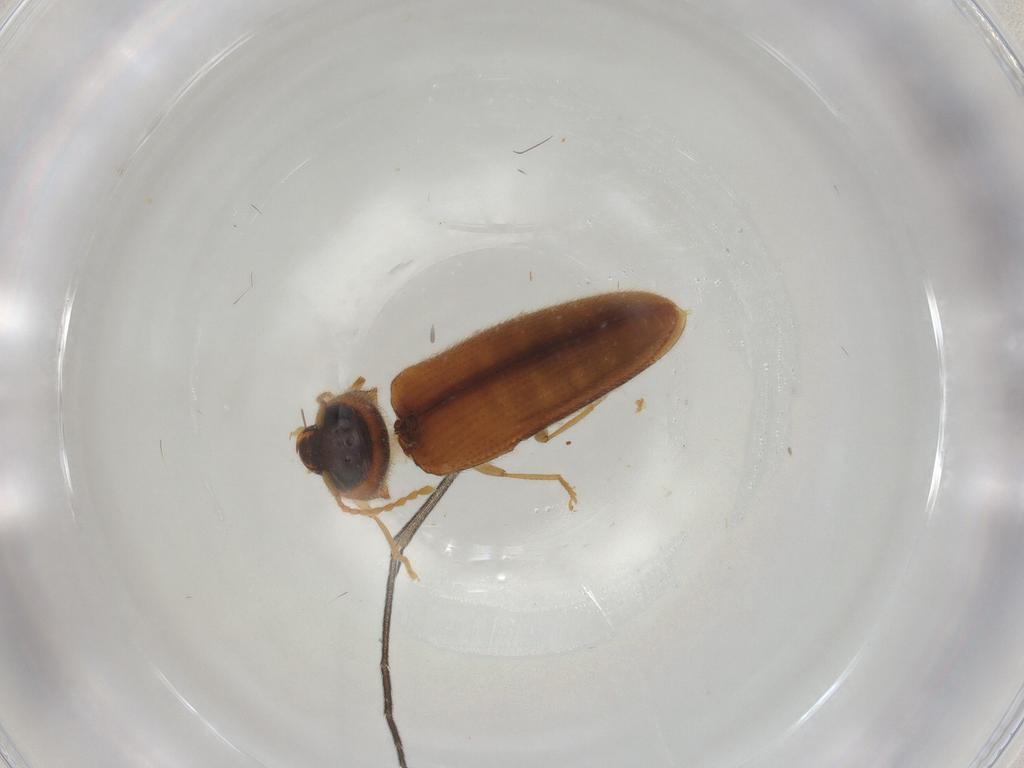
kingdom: Animalia
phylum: Arthropoda
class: Insecta
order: Coleoptera
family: Elateridae
